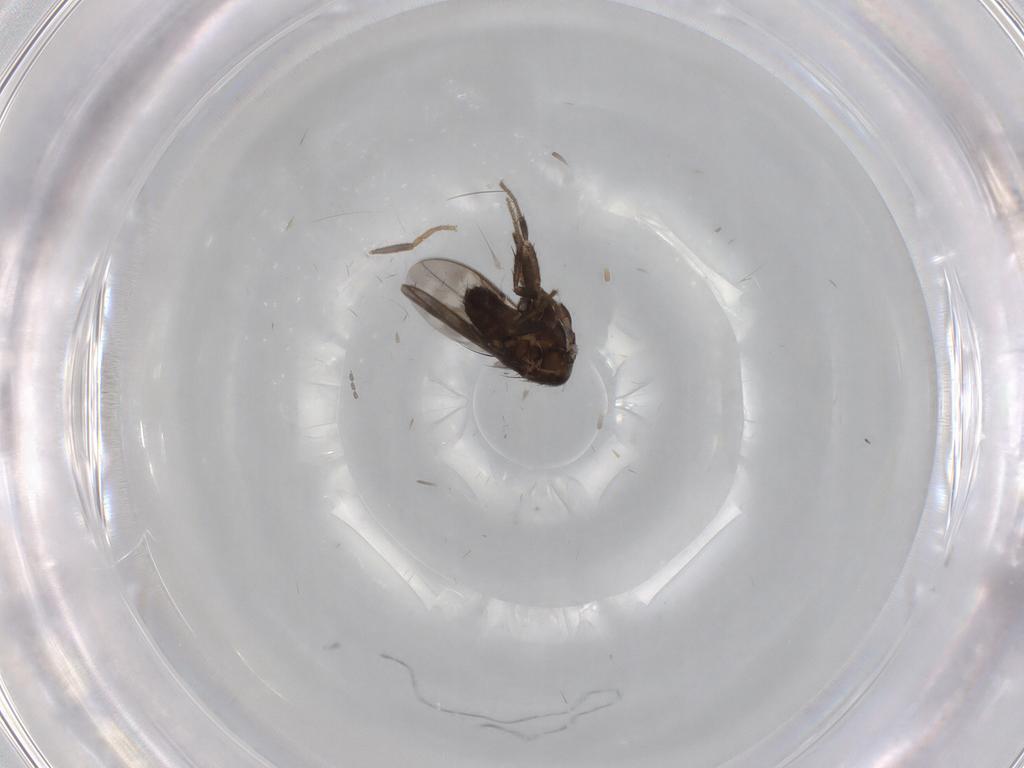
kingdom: Animalia
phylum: Arthropoda
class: Insecta
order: Diptera
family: Sphaeroceridae
